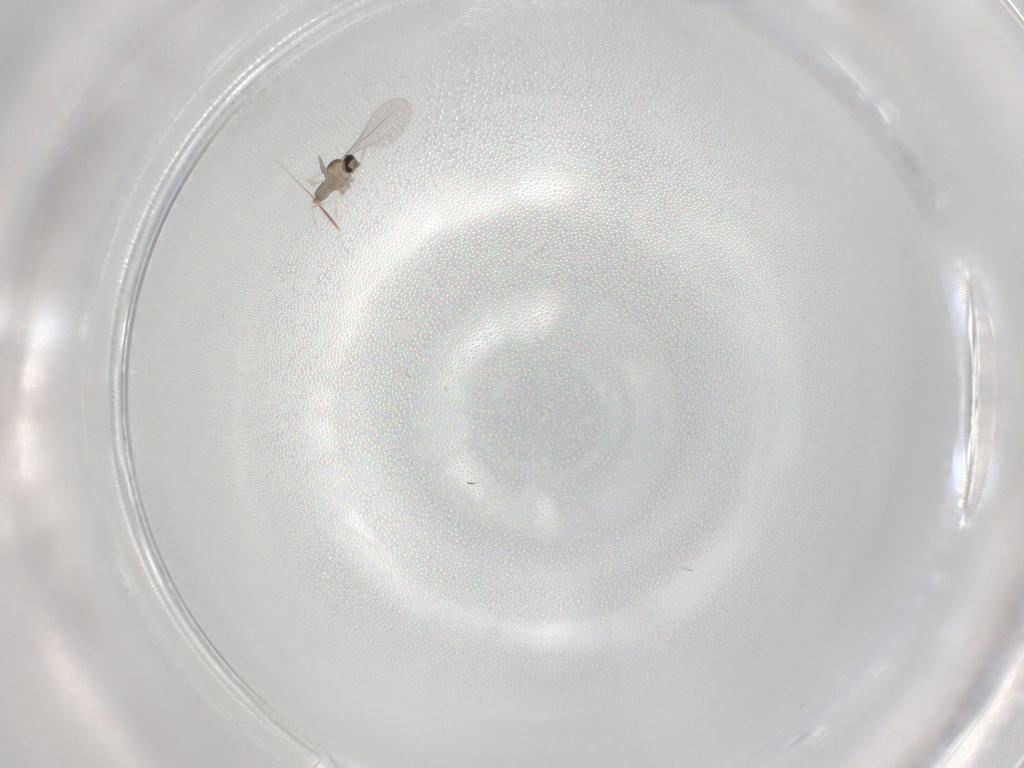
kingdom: Animalia
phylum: Arthropoda
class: Insecta
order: Diptera
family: Cecidomyiidae
